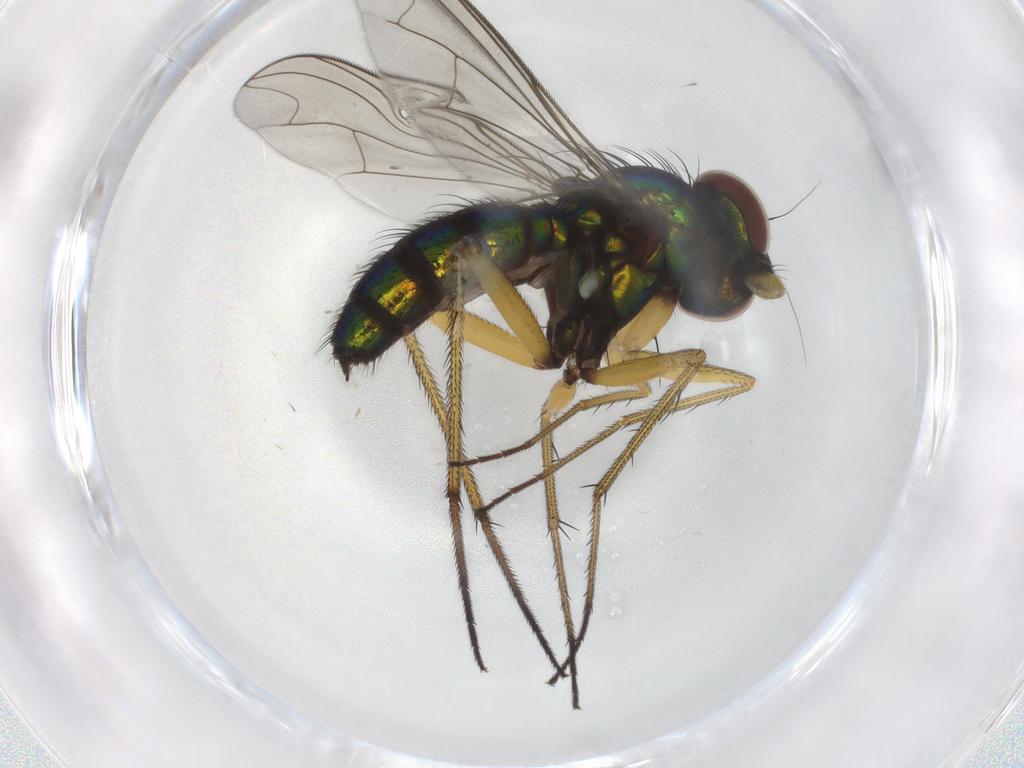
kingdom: Animalia
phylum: Arthropoda
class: Insecta
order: Diptera
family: Dolichopodidae
